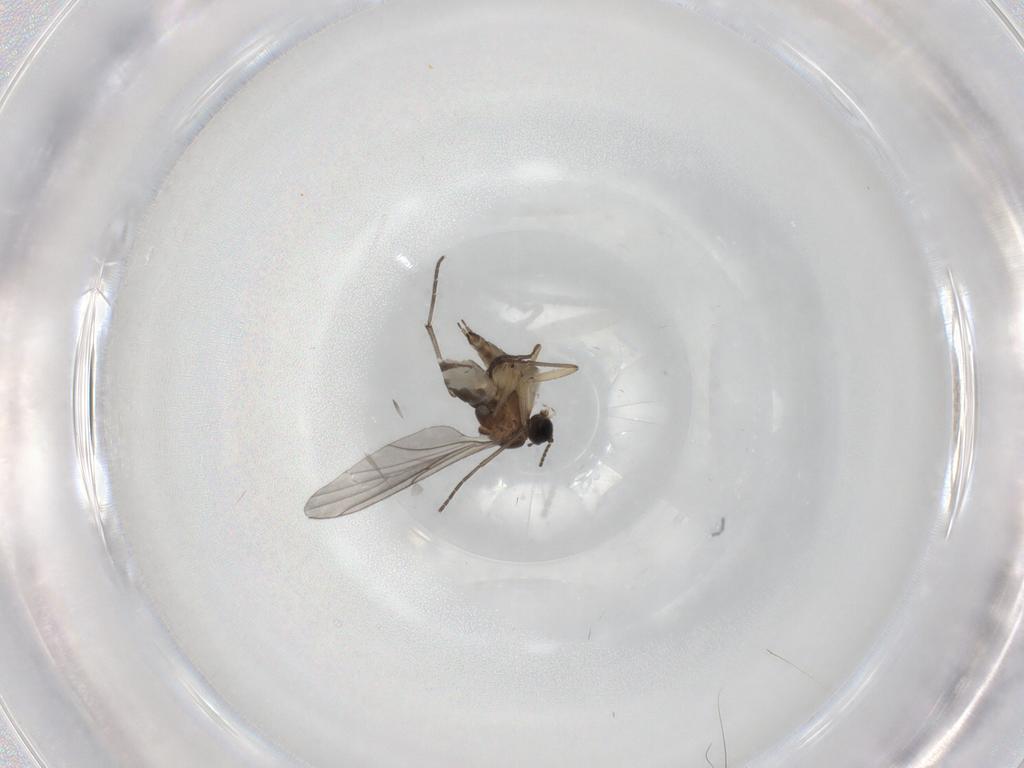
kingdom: Animalia
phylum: Arthropoda
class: Insecta
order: Diptera
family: Sciaridae
